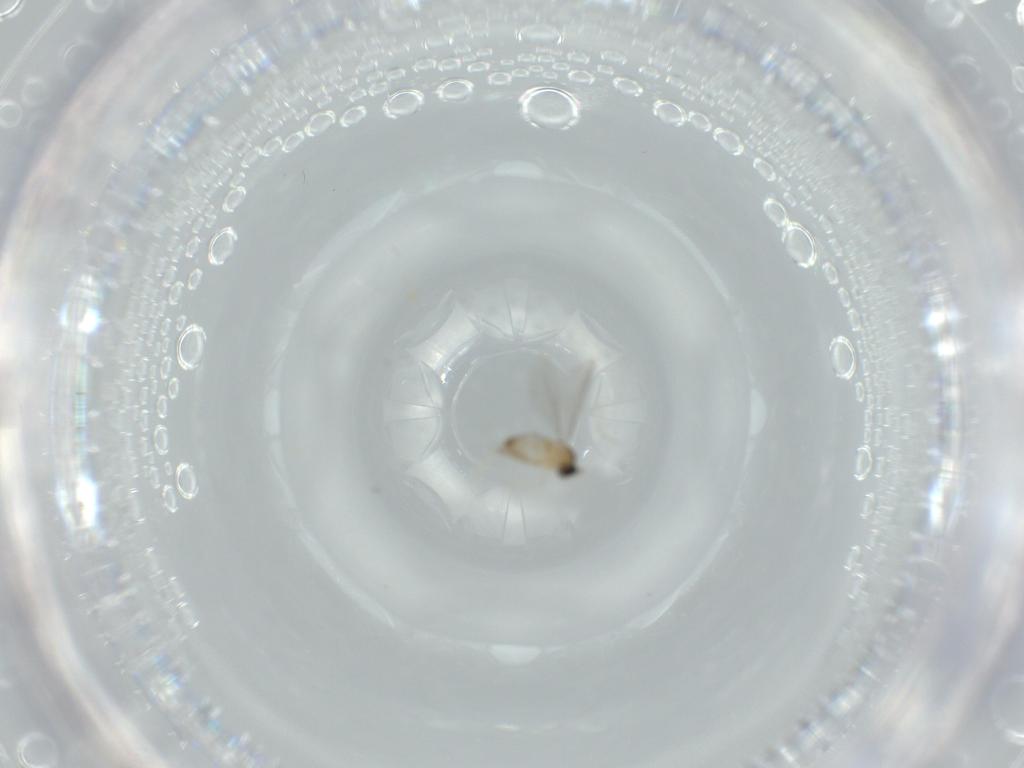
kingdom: Animalia
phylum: Arthropoda
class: Insecta
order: Diptera
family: Cecidomyiidae
